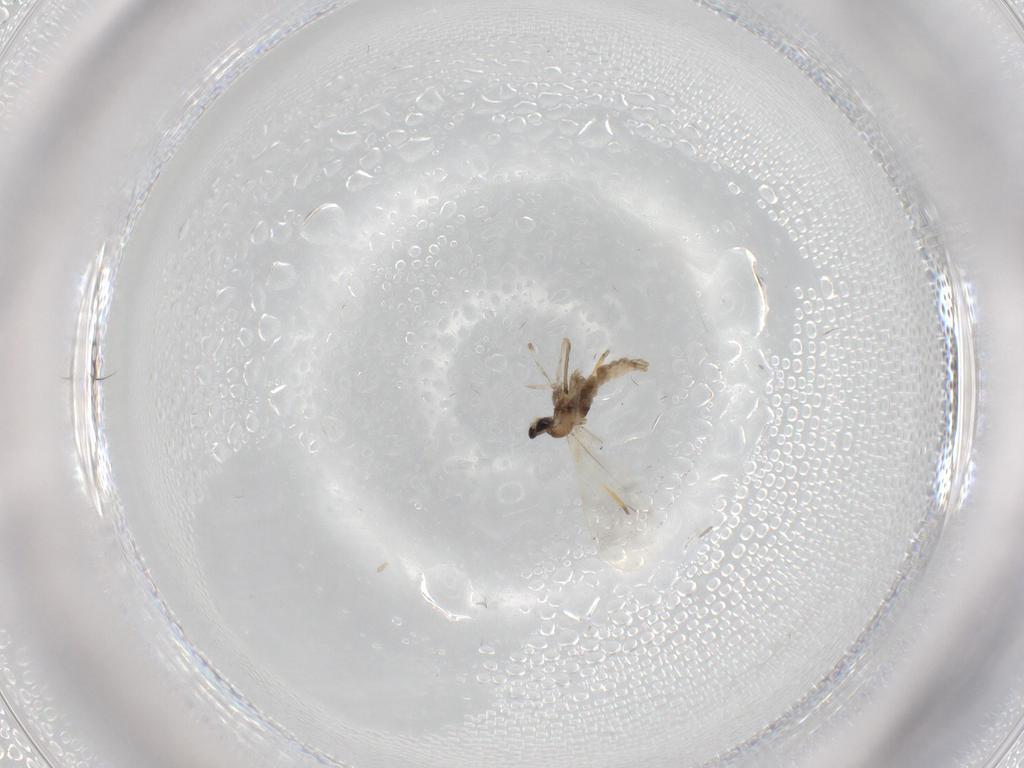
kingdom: Animalia
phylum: Arthropoda
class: Insecta
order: Diptera
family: Cecidomyiidae
